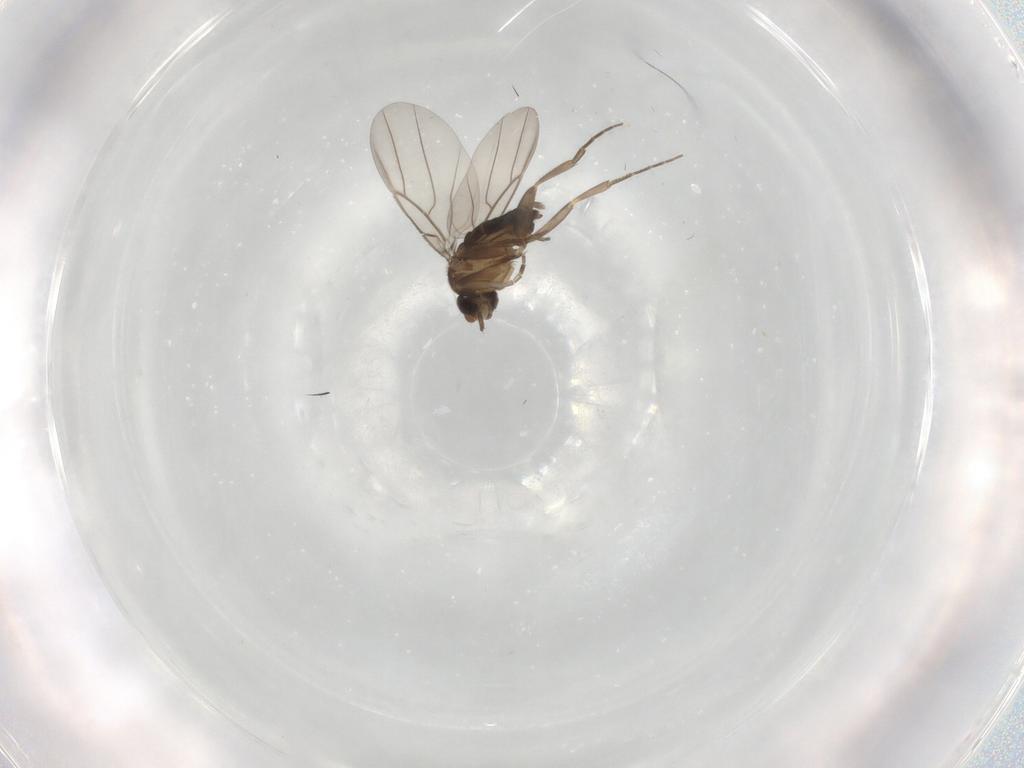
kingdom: Animalia
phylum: Arthropoda
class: Insecta
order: Diptera
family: Phoridae
